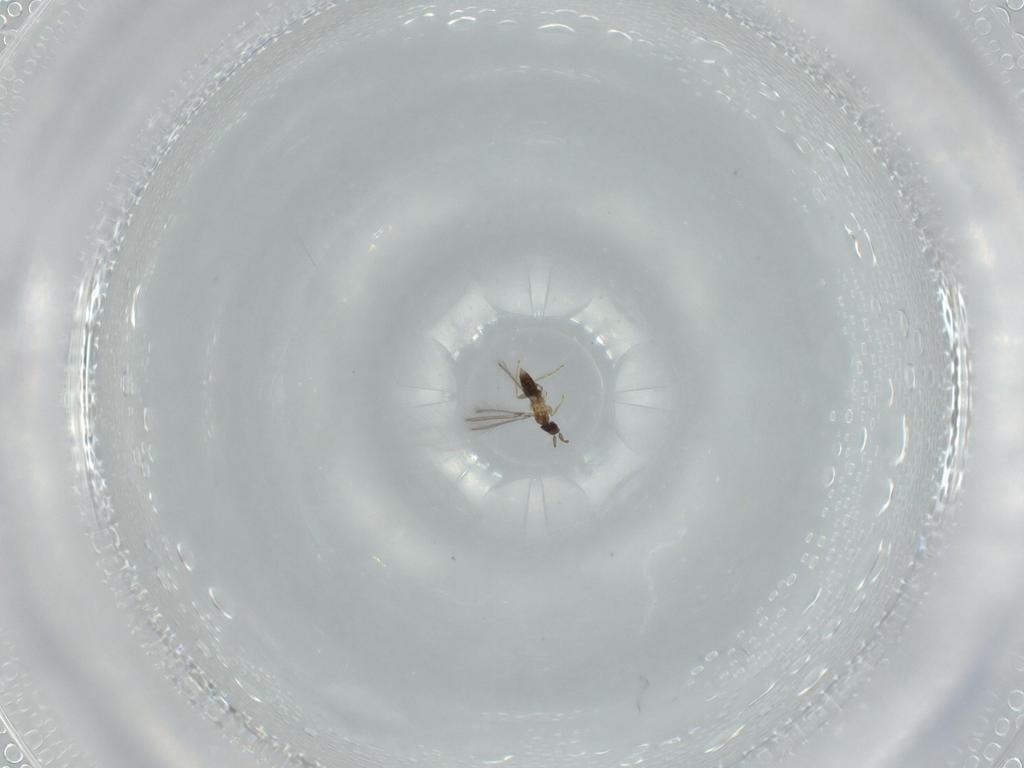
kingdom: Animalia
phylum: Arthropoda
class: Insecta
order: Hymenoptera
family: Mymaridae
